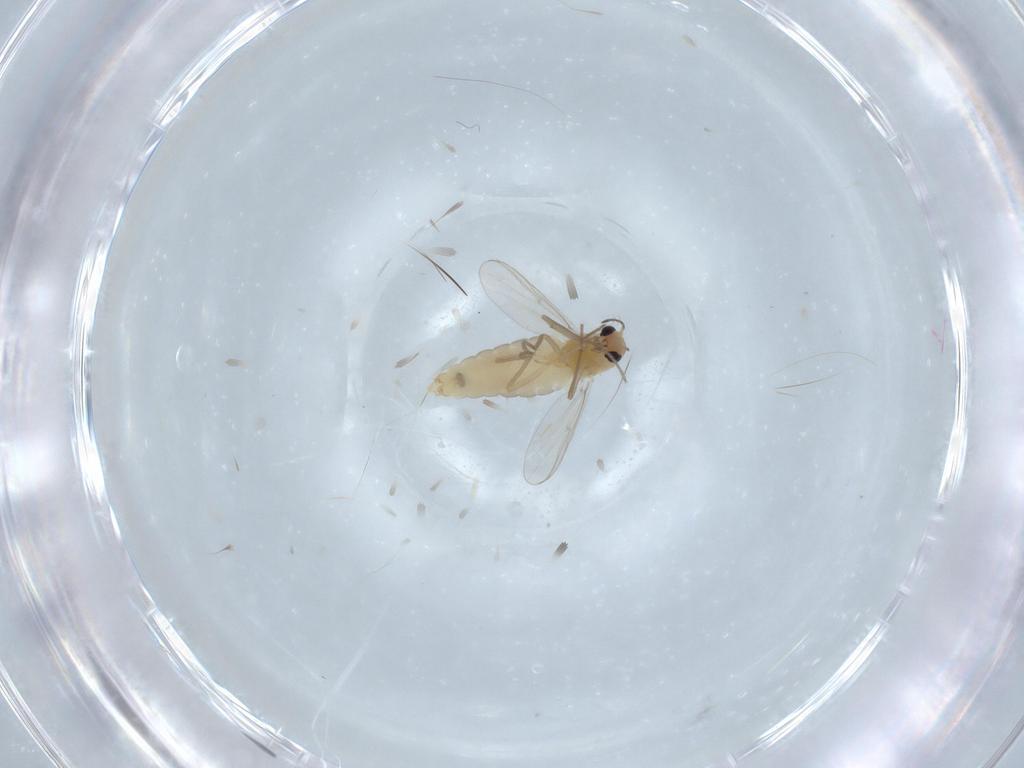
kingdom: Animalia
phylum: Arthropoda
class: Insecta
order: Diptera
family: Chironomidae
